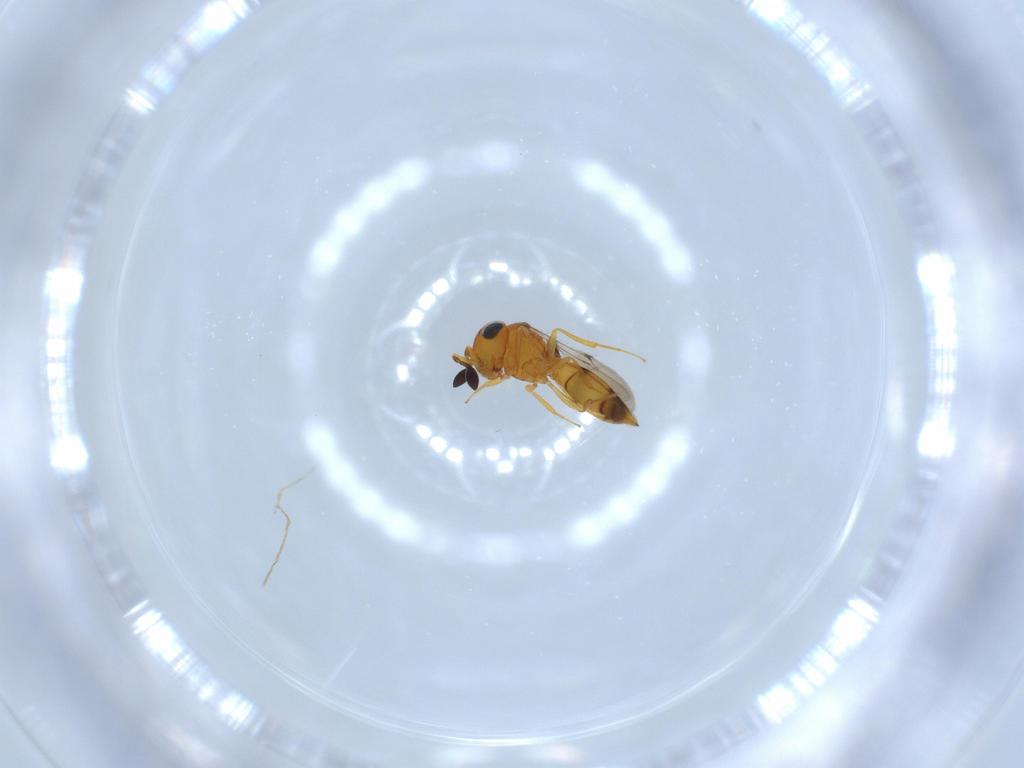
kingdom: Animalia
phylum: Arthropoda
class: Insecta
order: Hymenoptera
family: Scelionidae
